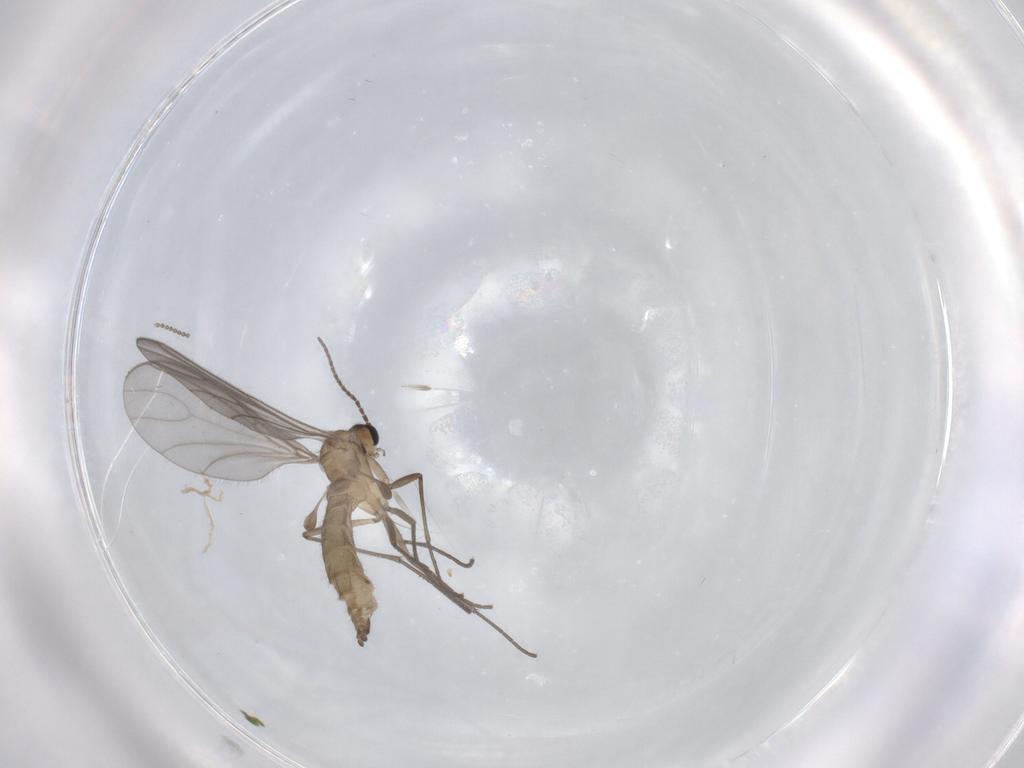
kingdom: Animalia
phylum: Arthropoda
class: Insecta
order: Diptera
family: Sciaridae
